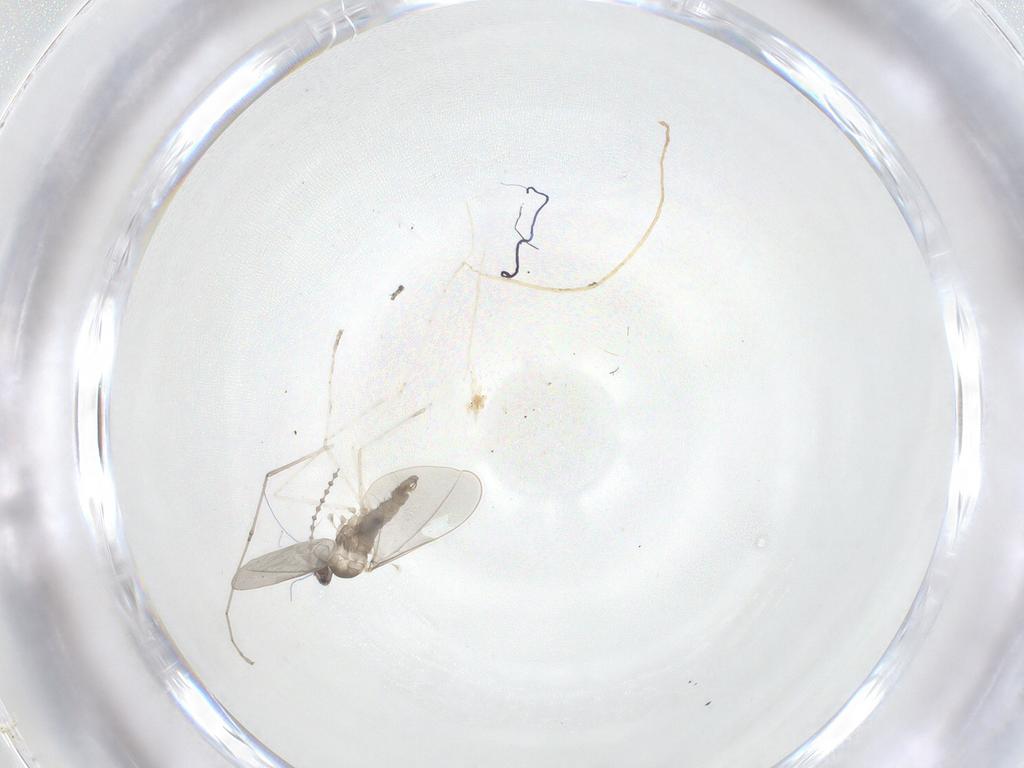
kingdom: Animalia
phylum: Arthropoda
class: Insecta
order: Diptera
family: Cecidomyiidae
